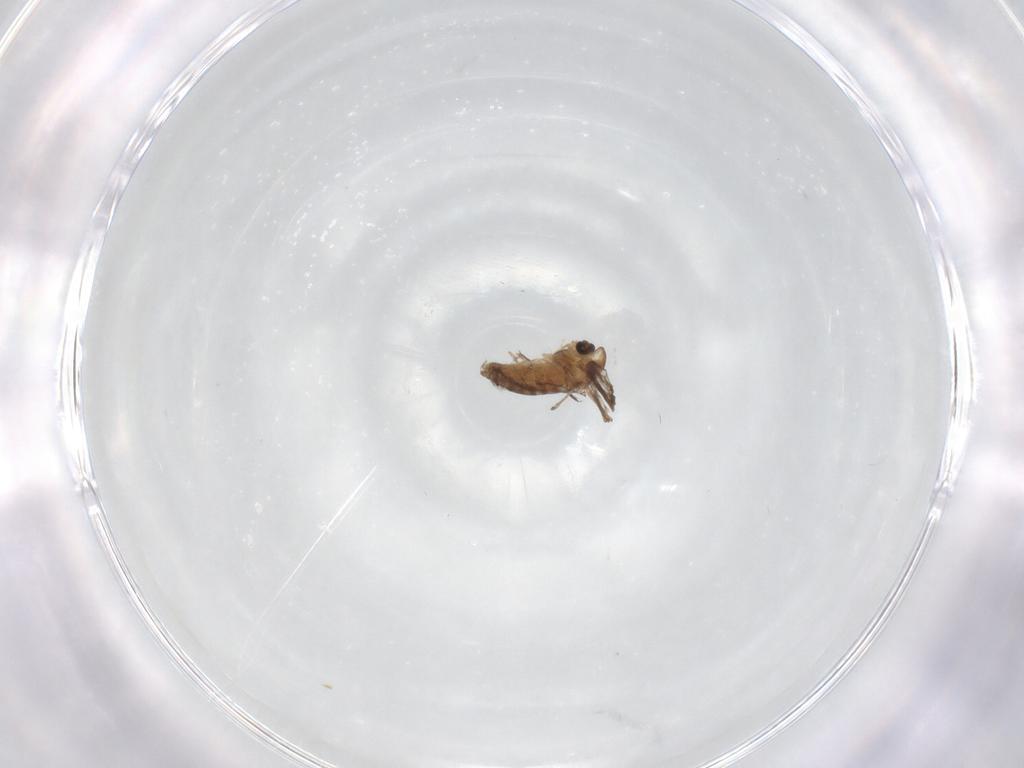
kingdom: Animalia
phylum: Arthropoda
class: Insecta
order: Diptera
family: Chironomidae
